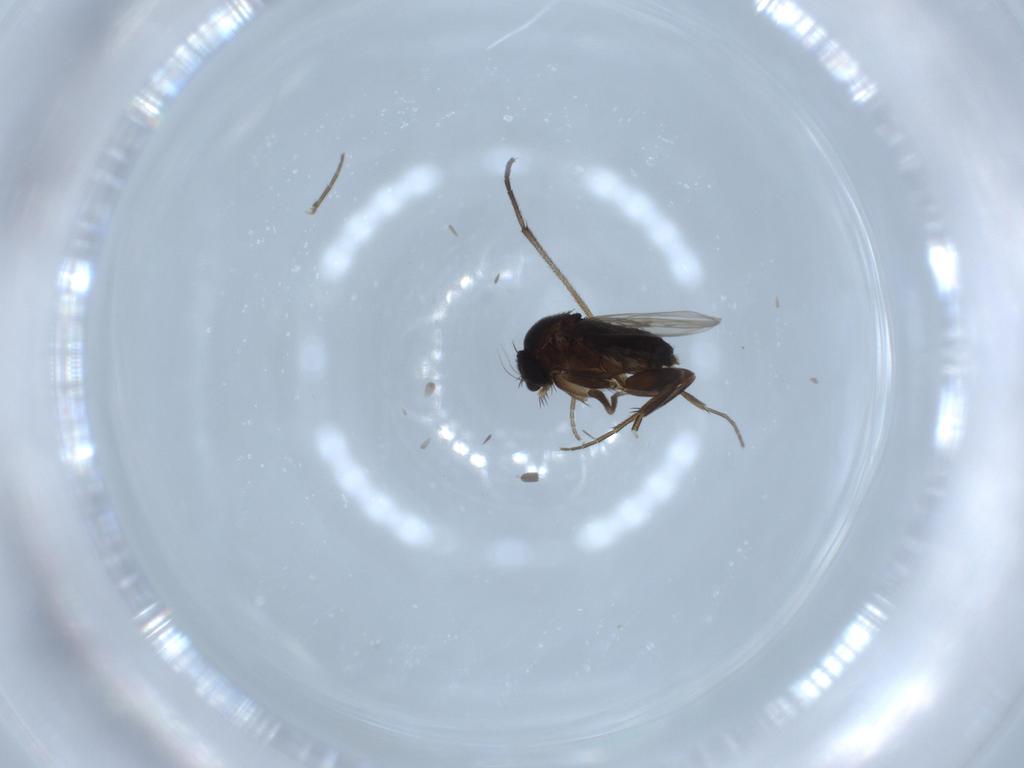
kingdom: Animalia
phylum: Arthropoda
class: Insecta
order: Diptera
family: Phoridae
